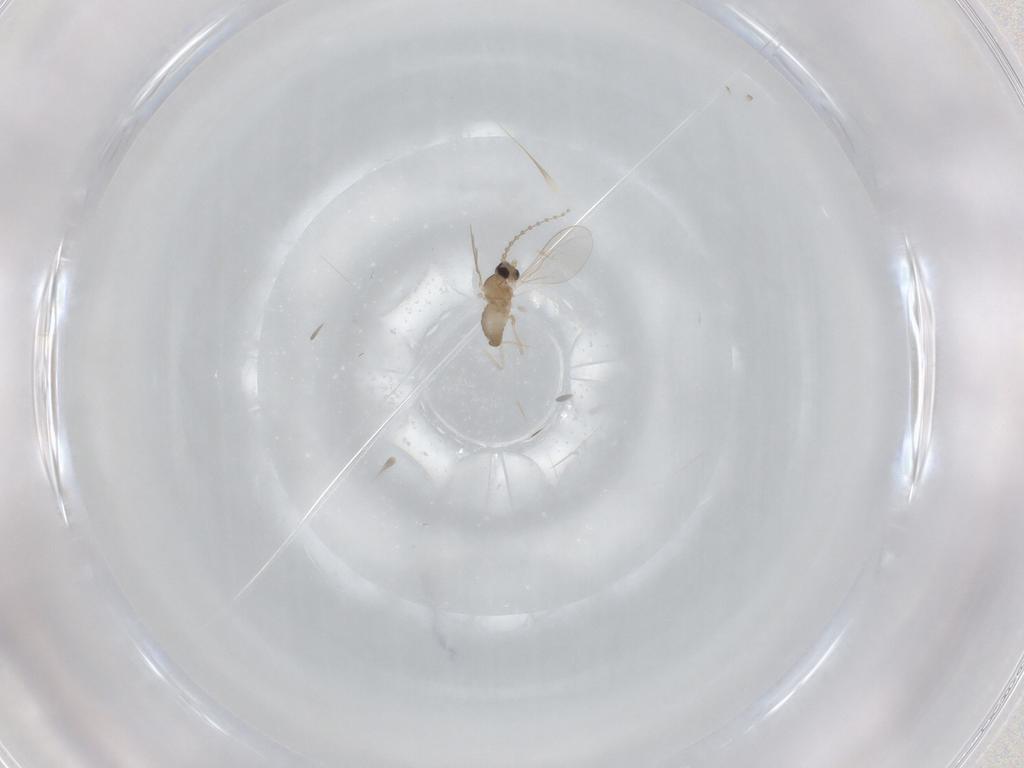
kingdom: Animalia
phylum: Arthropoda
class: Insecta
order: Diptera
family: Cecidomyiidae
